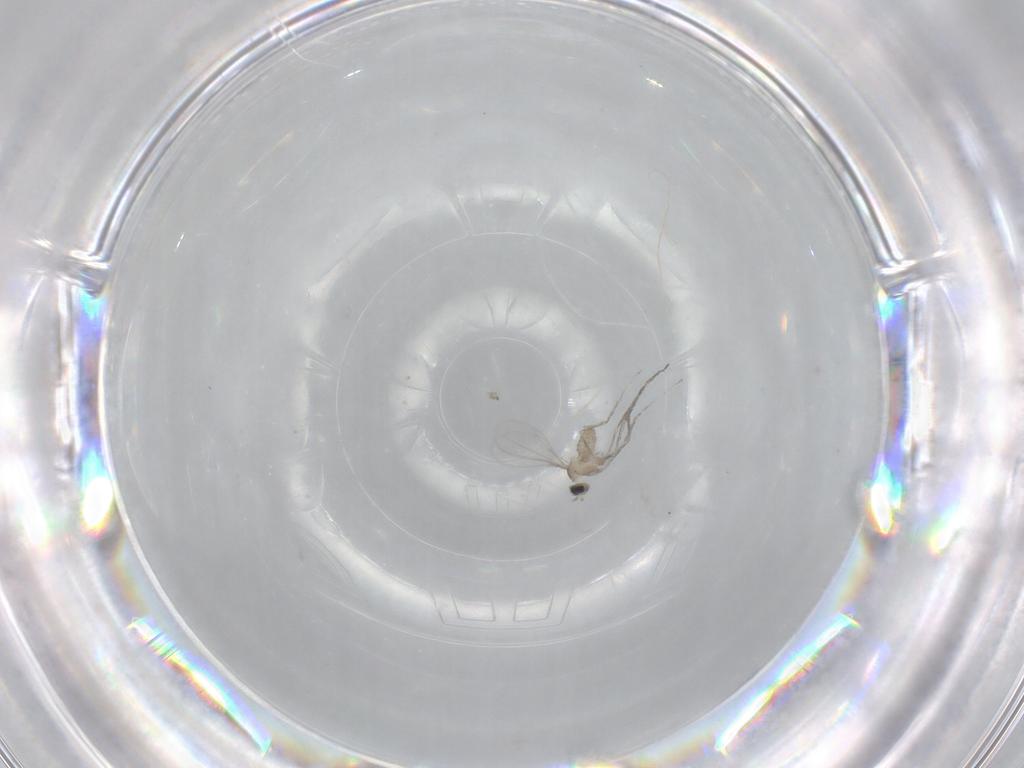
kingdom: Animalia
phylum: Arthropoda
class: Insecta
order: Diptera
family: Cecidomyiidae
